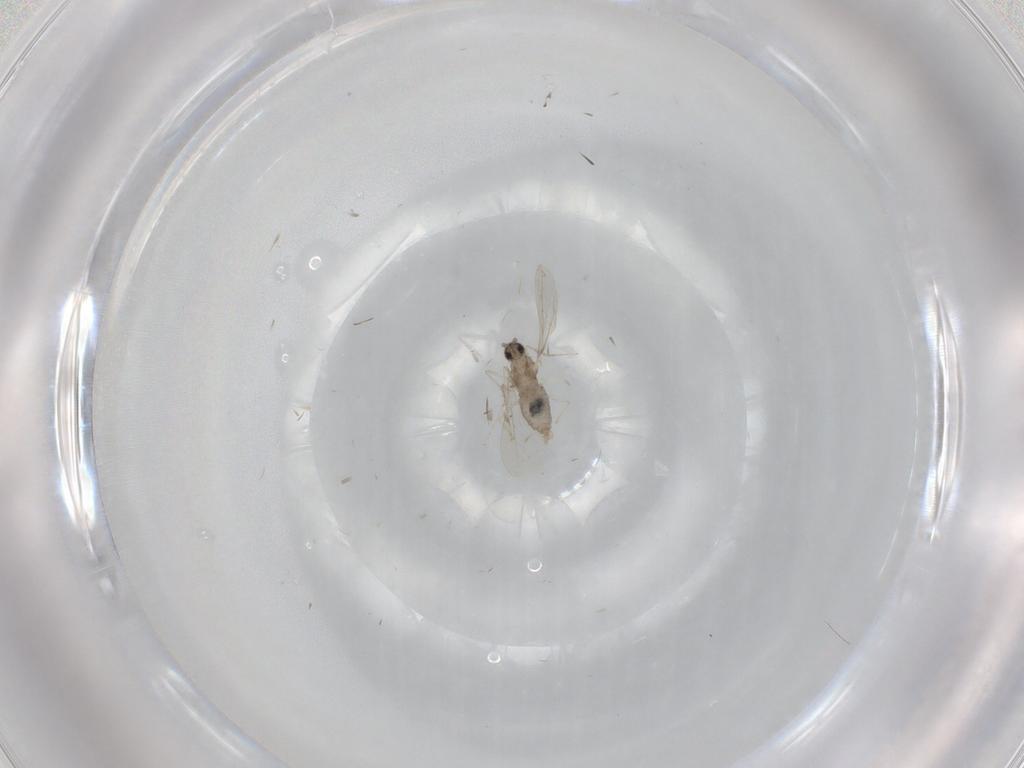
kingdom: Animalia
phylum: Arthropoda
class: Insecta
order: Diptera
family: Cecidomyiidae
